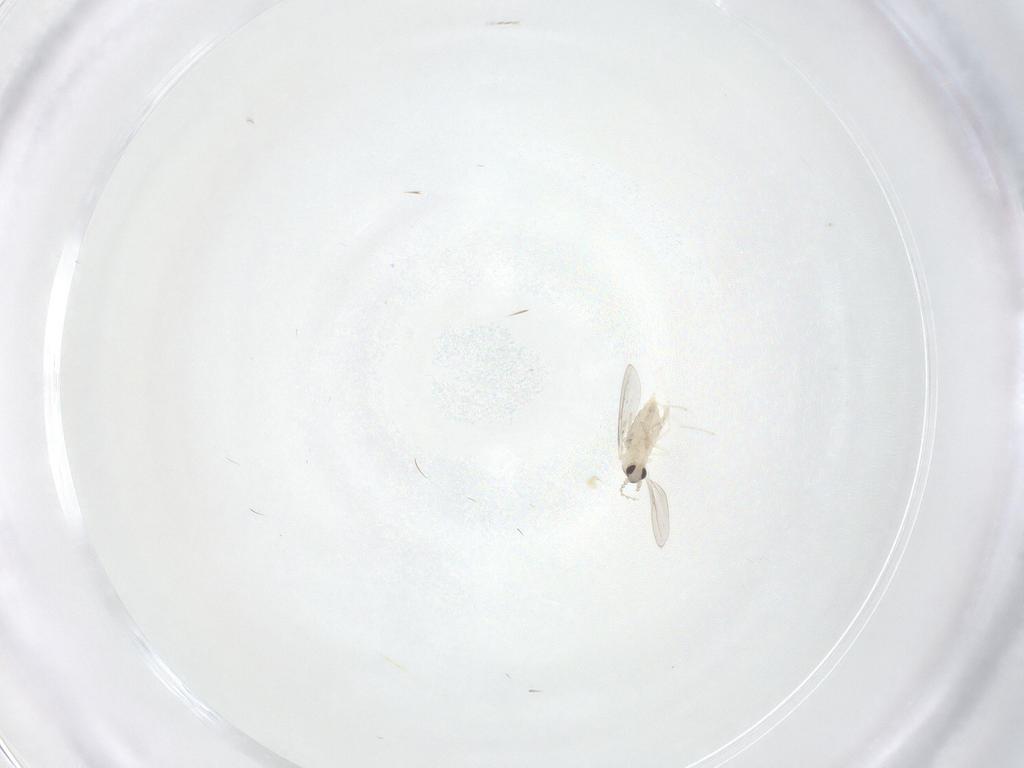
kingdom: Animalia
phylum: Arthropoda
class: Insecta
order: Diptera
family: Cecidomyiidae
